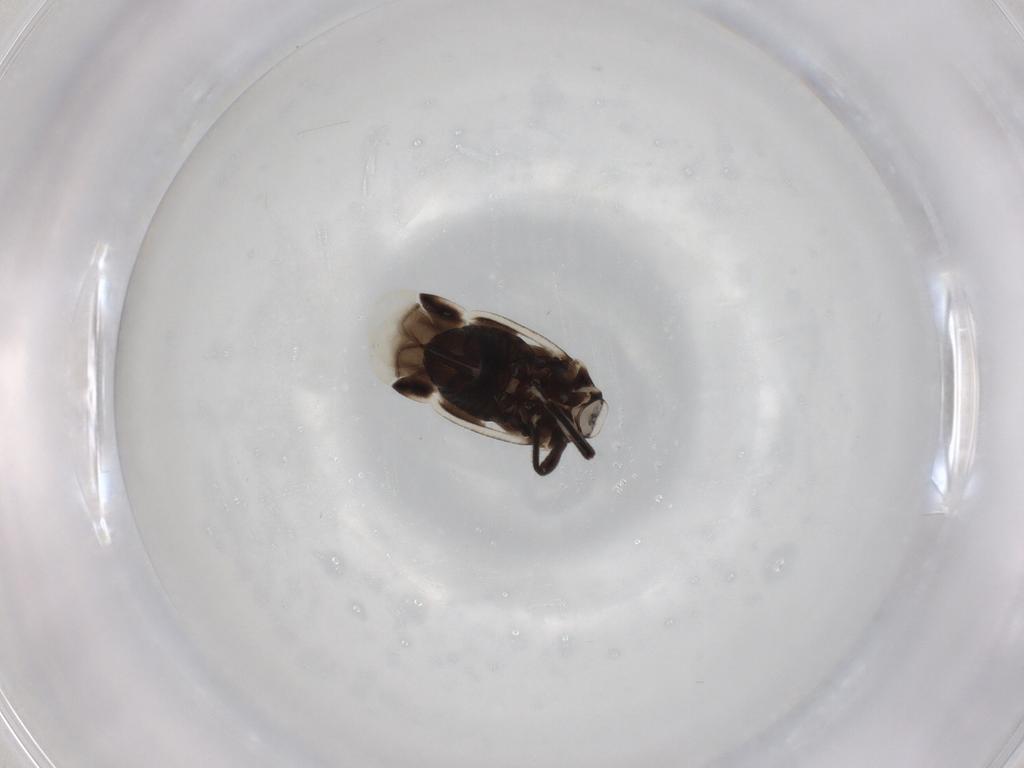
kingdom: Animalia
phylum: Arthropoda
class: Insecta
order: Hemiptera
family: Miridae
